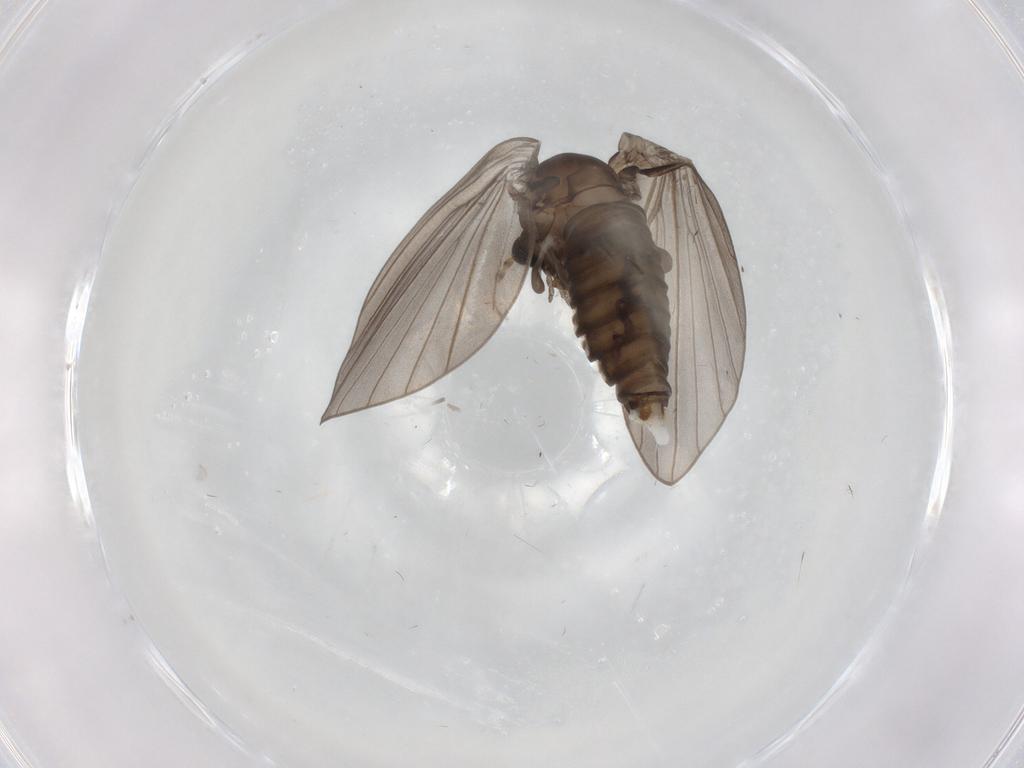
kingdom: Animalia
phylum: Arthropoda
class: Insecta
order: Diptera
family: Psychodidae
